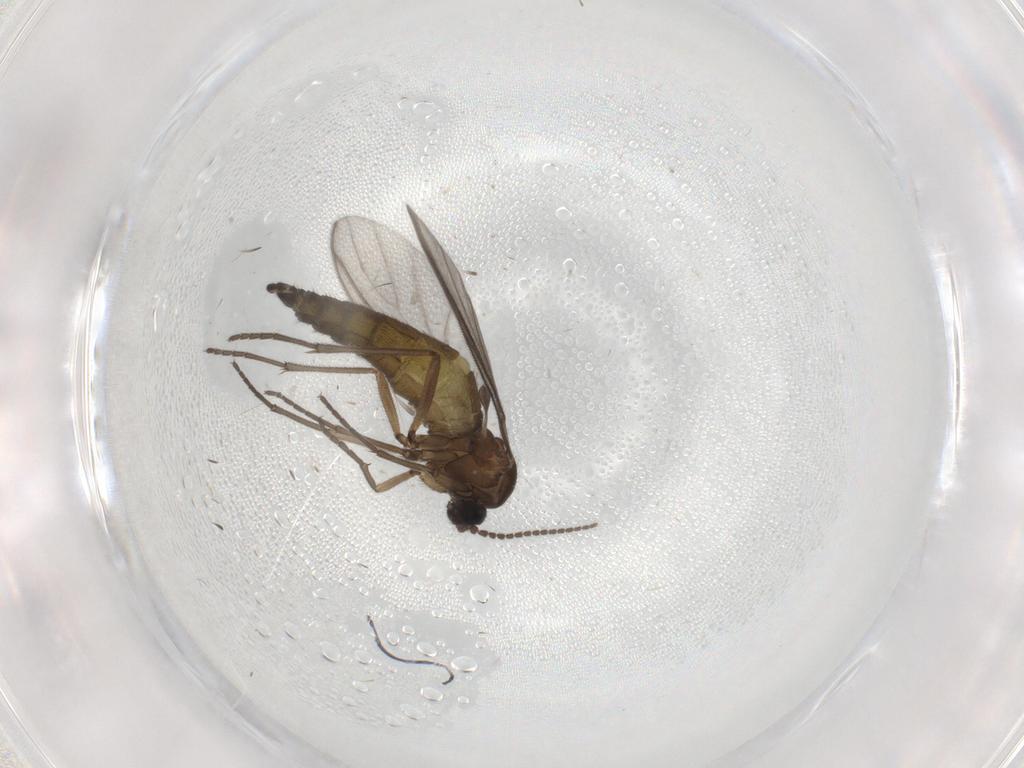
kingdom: Animalia
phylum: Arthropoda
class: Insecta
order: Diptera
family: Sciaridae
